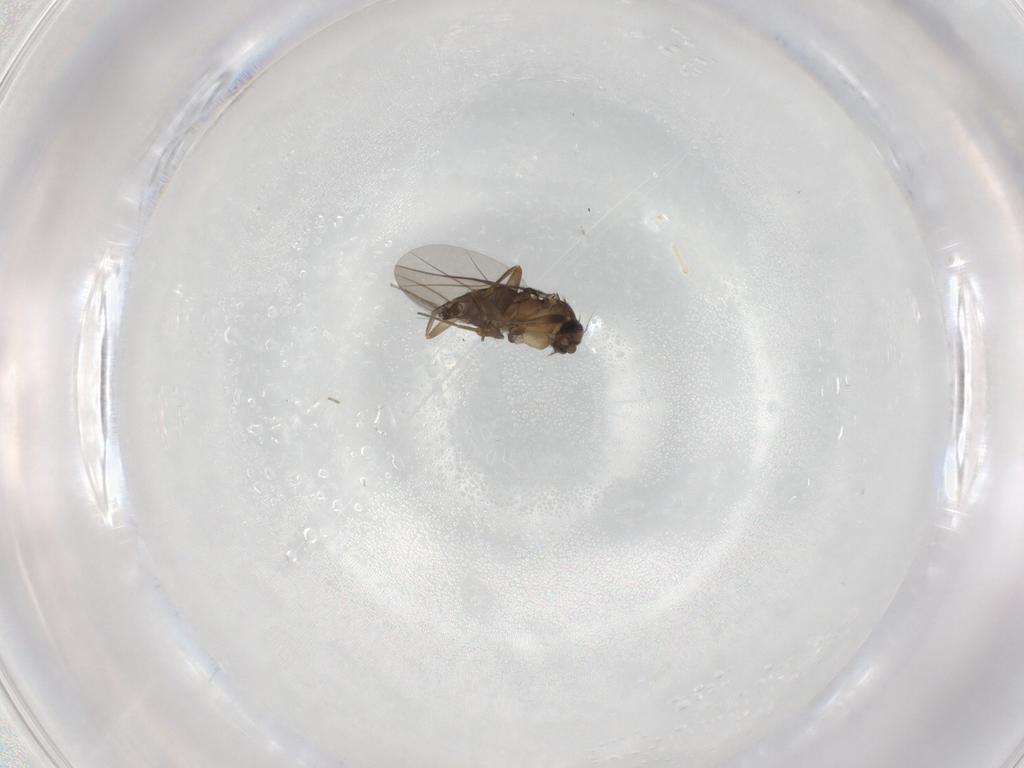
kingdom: Animalia
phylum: Arthropoda
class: Insecta
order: Diptera
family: Phoridae
